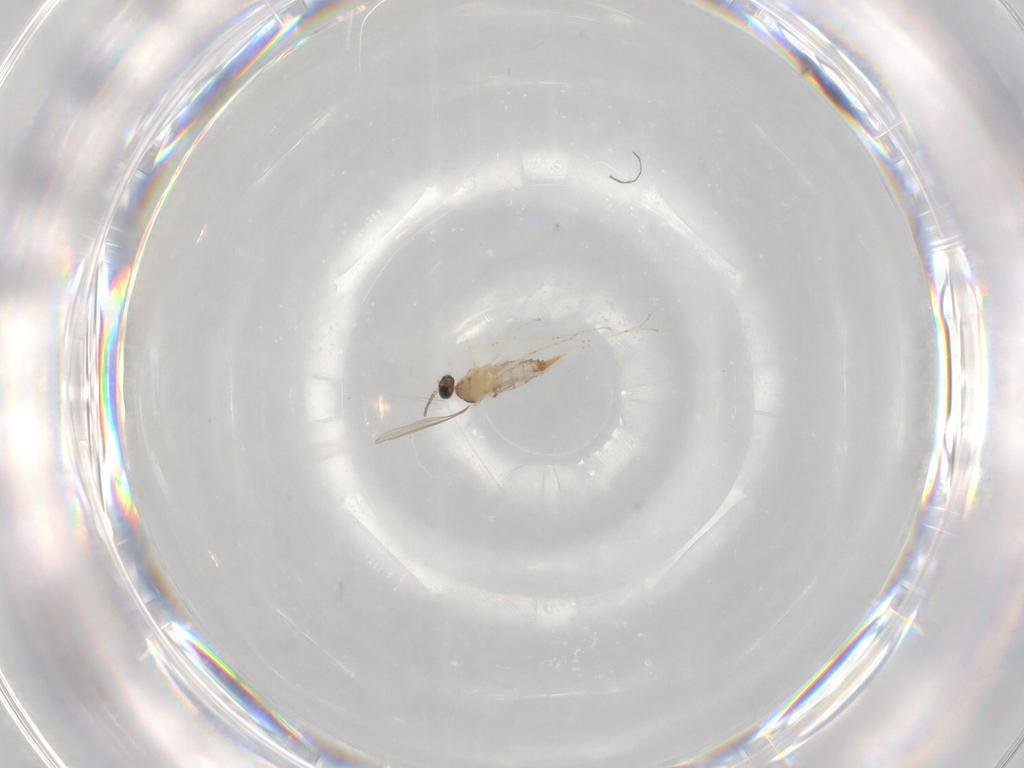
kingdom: Animalia
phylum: Arthropoda
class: Insecta
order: Diptera
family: Cecidomyiidae
